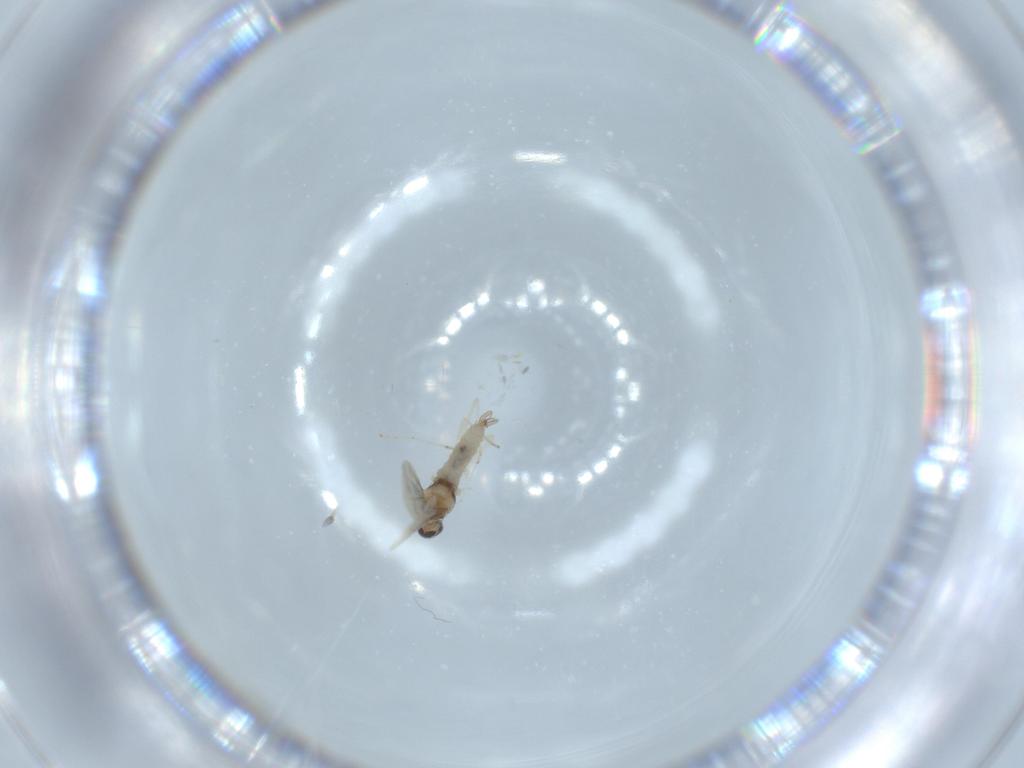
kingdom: Animalia
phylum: Arthropoda
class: Insecta
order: Diptera
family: Cecidomyiidae
